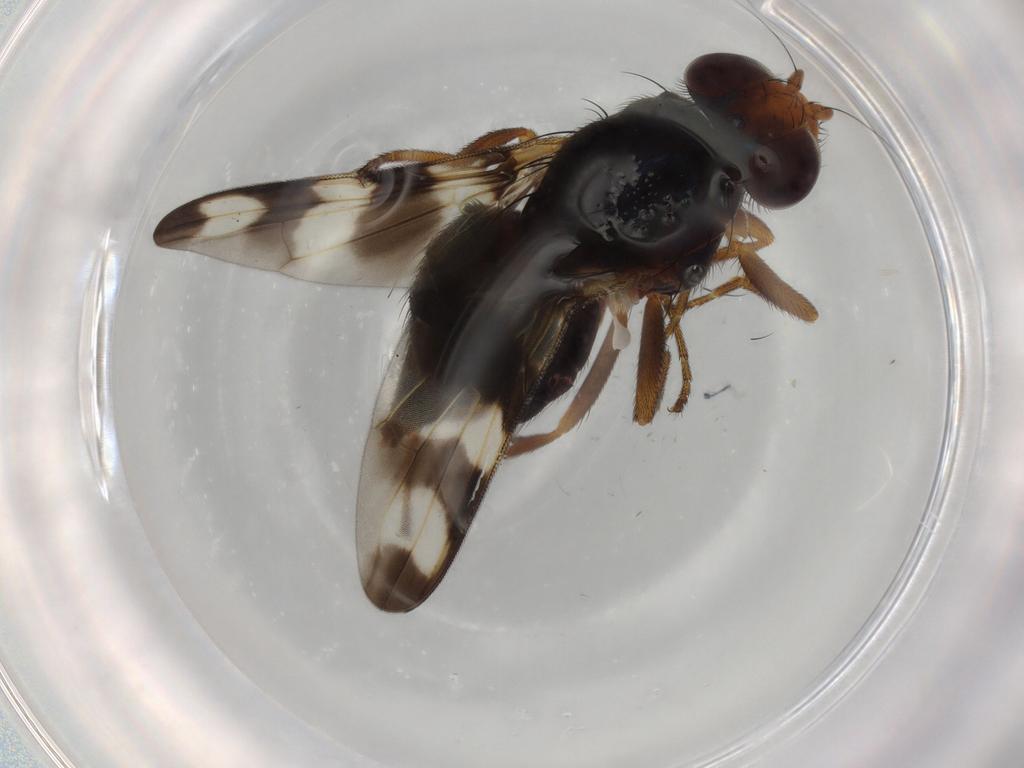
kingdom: Animalia
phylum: Arthropoda
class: Insecta
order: Diptera
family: Ulidiidae
